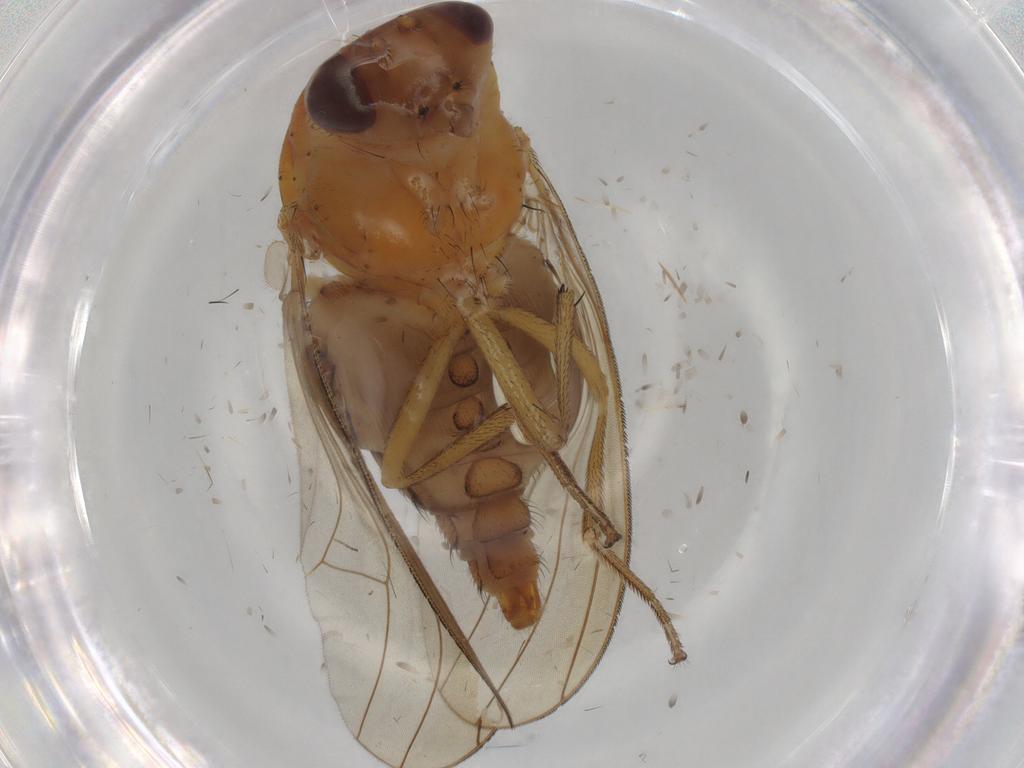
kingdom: Animalia
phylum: Arthropoda
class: Insecta
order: Diptera
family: Lauxaniidae
